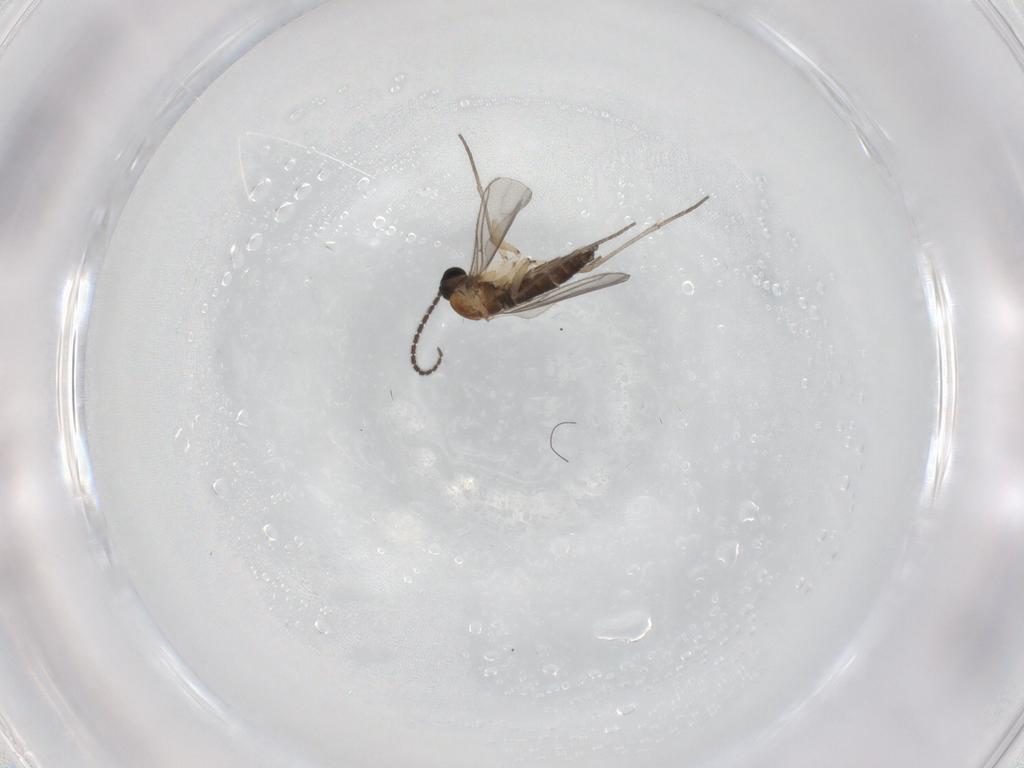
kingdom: Animalia
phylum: Arthropoda
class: Insecta
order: Diptera
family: Sciaridae
